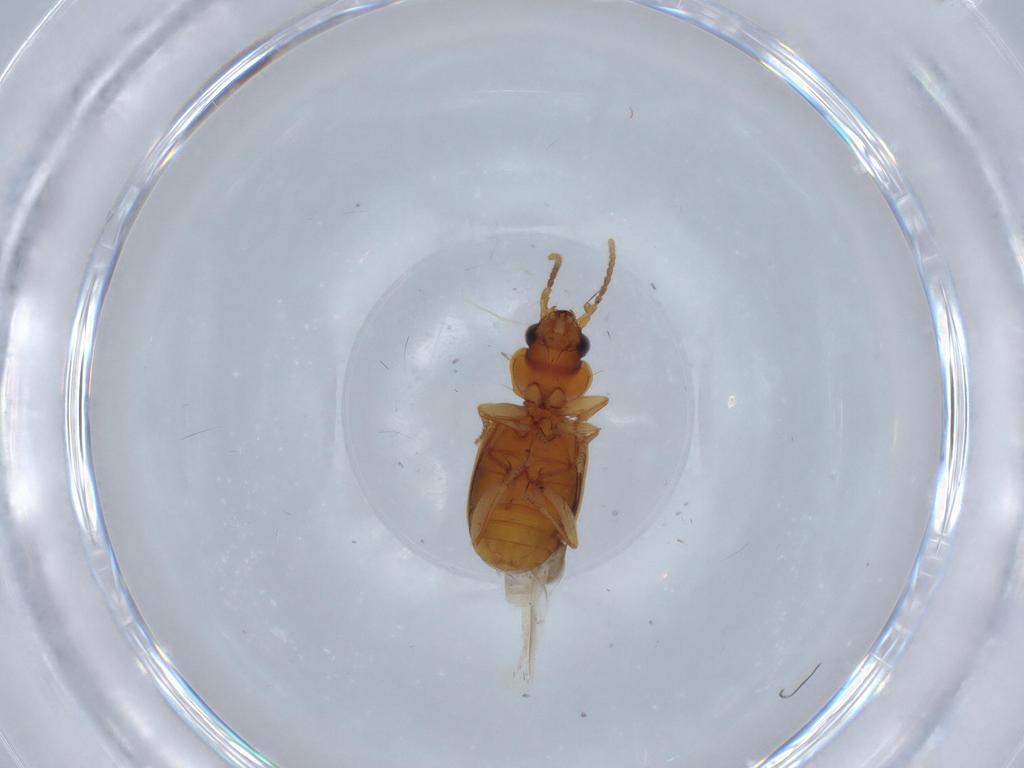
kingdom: Animalia
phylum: Arthropoda
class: Insecta
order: Coleoptera
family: Carabidae
